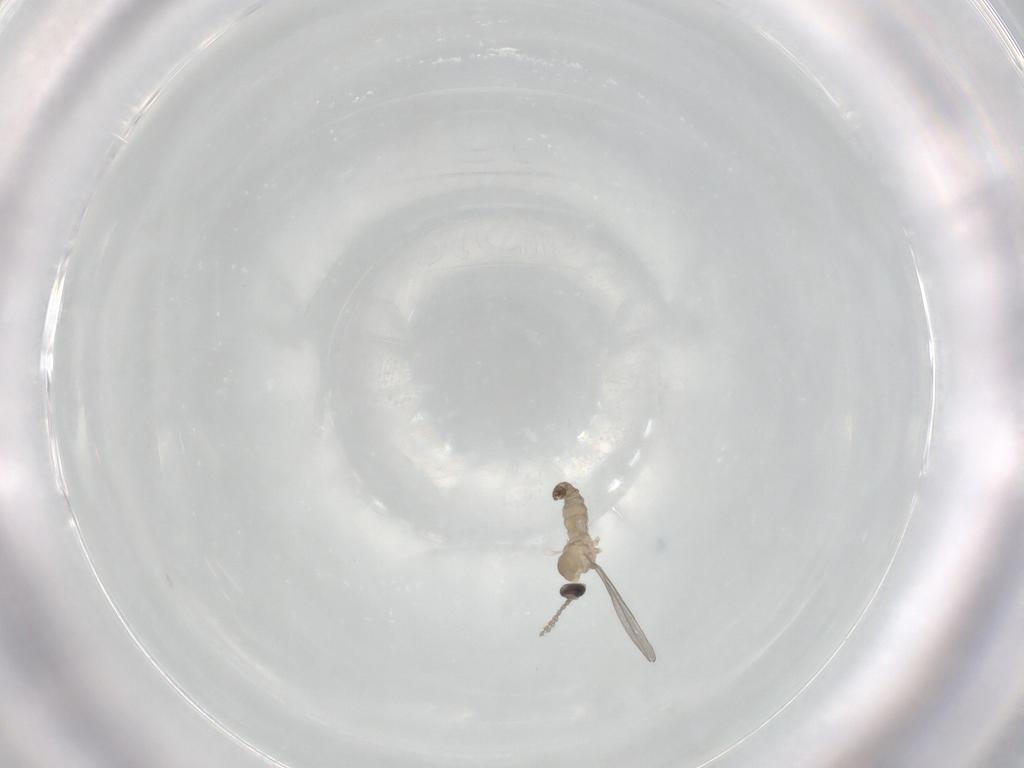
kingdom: Animalia
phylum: Arthropoda
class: Insecta
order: Diptera
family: Cecidomyiidae
